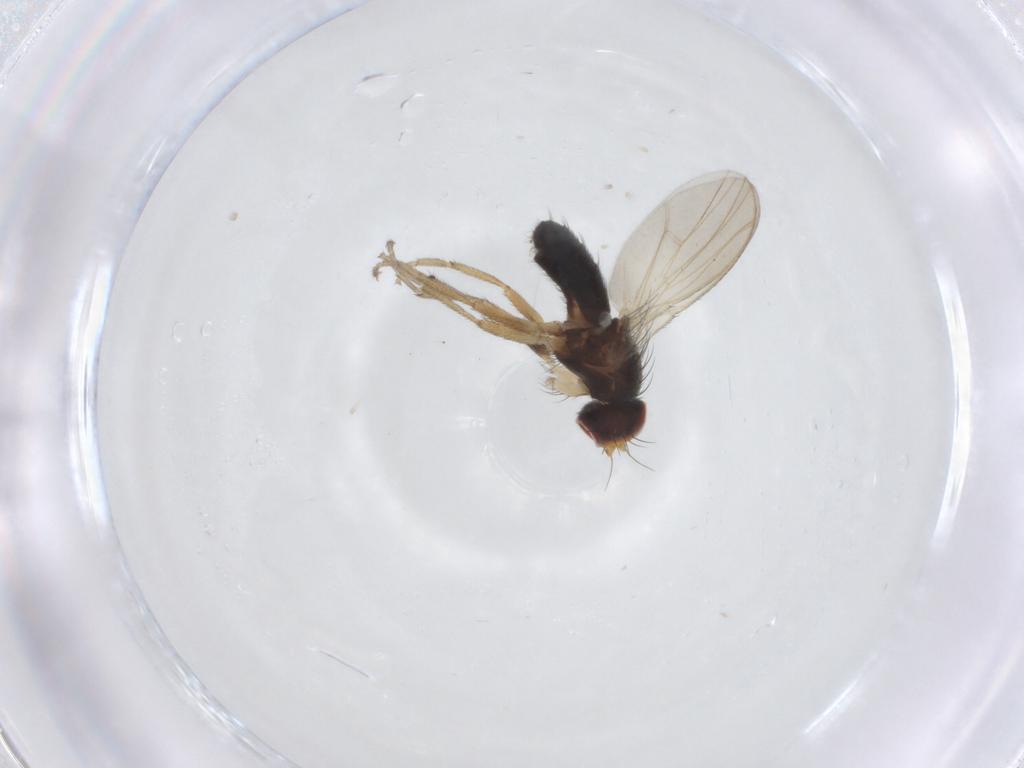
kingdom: Animalia
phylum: Arthropoda
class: Insecta
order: Diptera
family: Heleomyzidae
